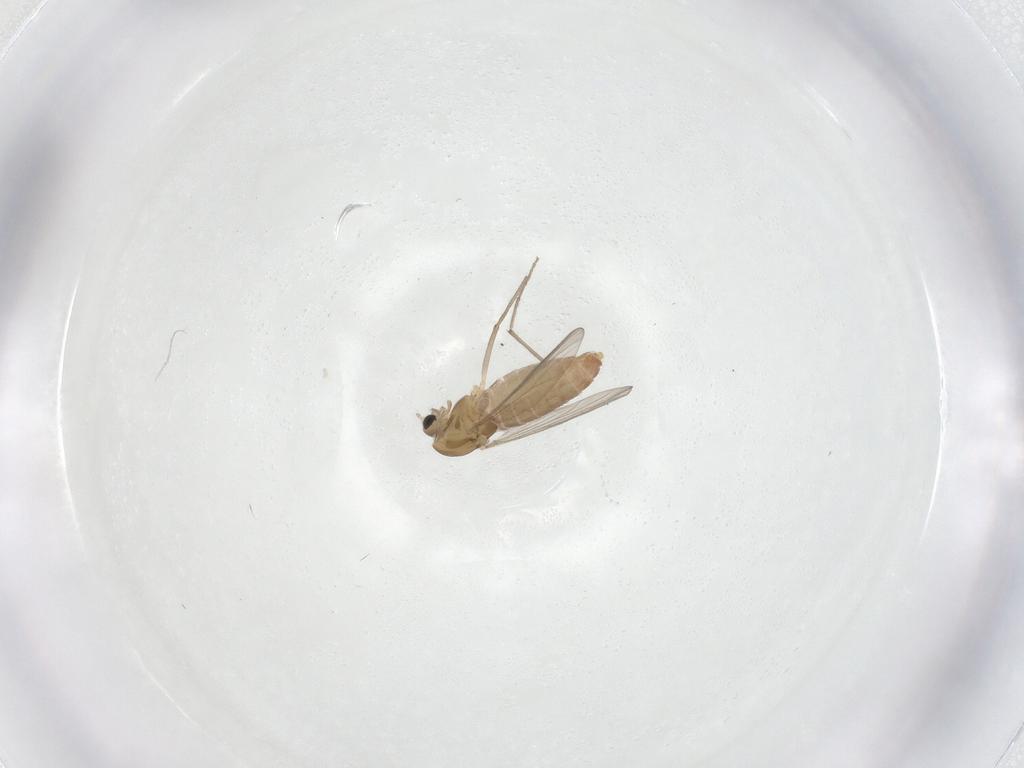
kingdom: Animalia
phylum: Arthropoda
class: Insecta
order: Diptera
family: Chironomidae
